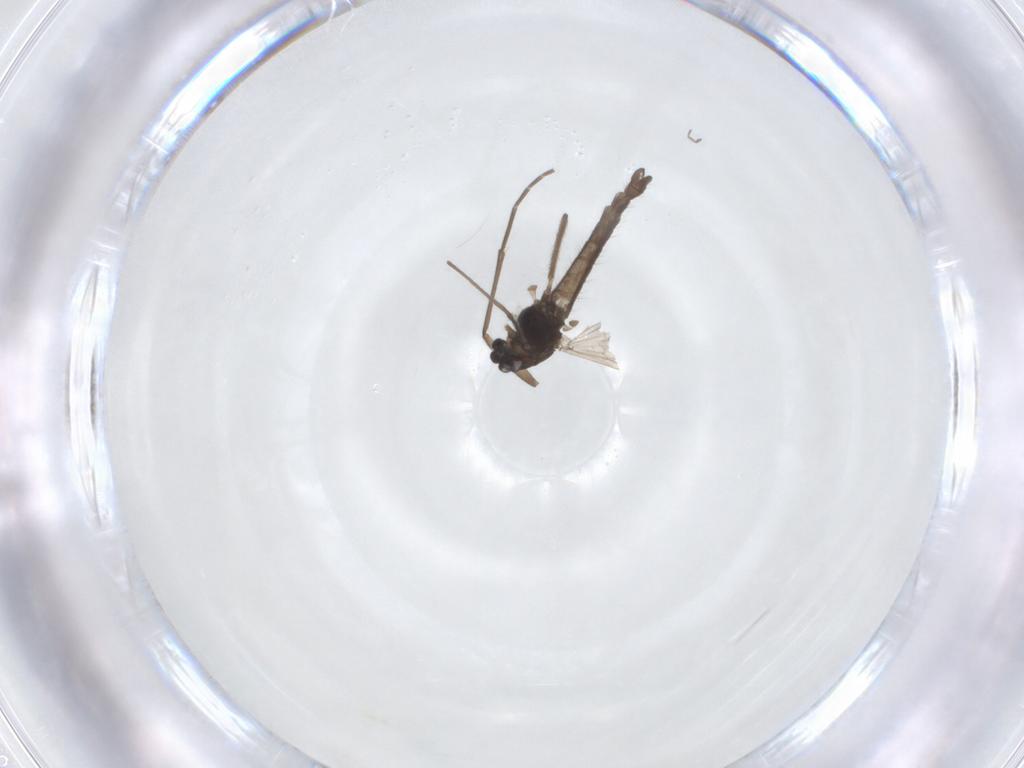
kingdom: Animalia
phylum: Arthropoda
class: Insecta
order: Diptera
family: Chironomidae
